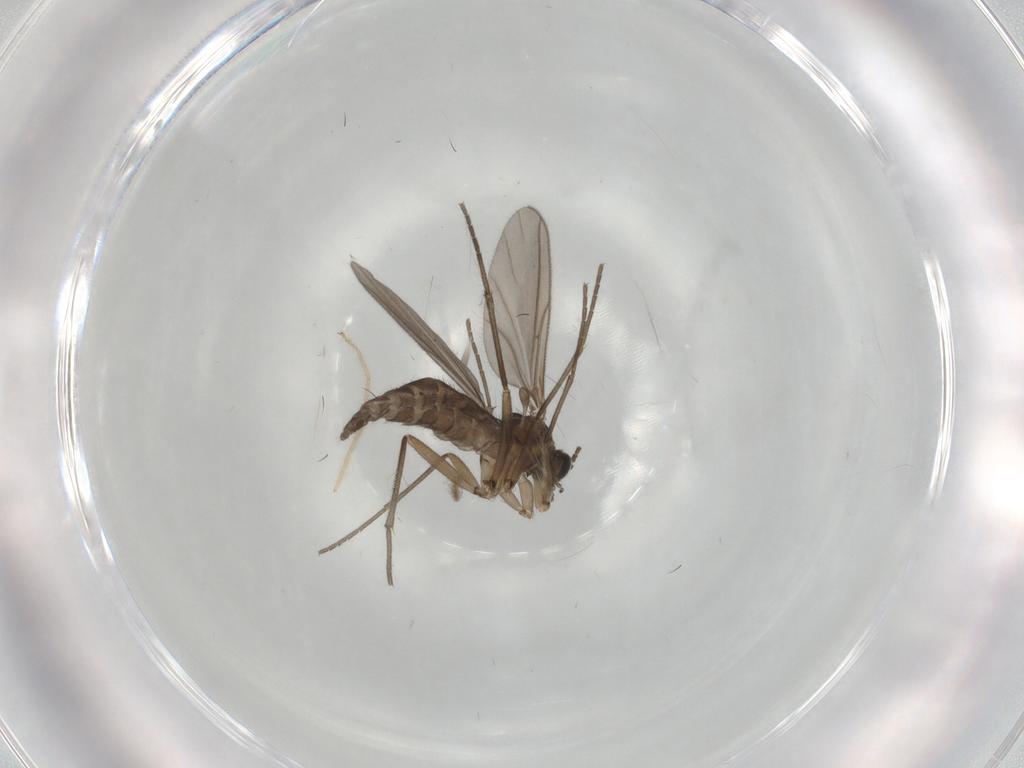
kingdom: Animalia
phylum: Arthropoda
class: Insecta
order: Diptera
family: Sciaridae
